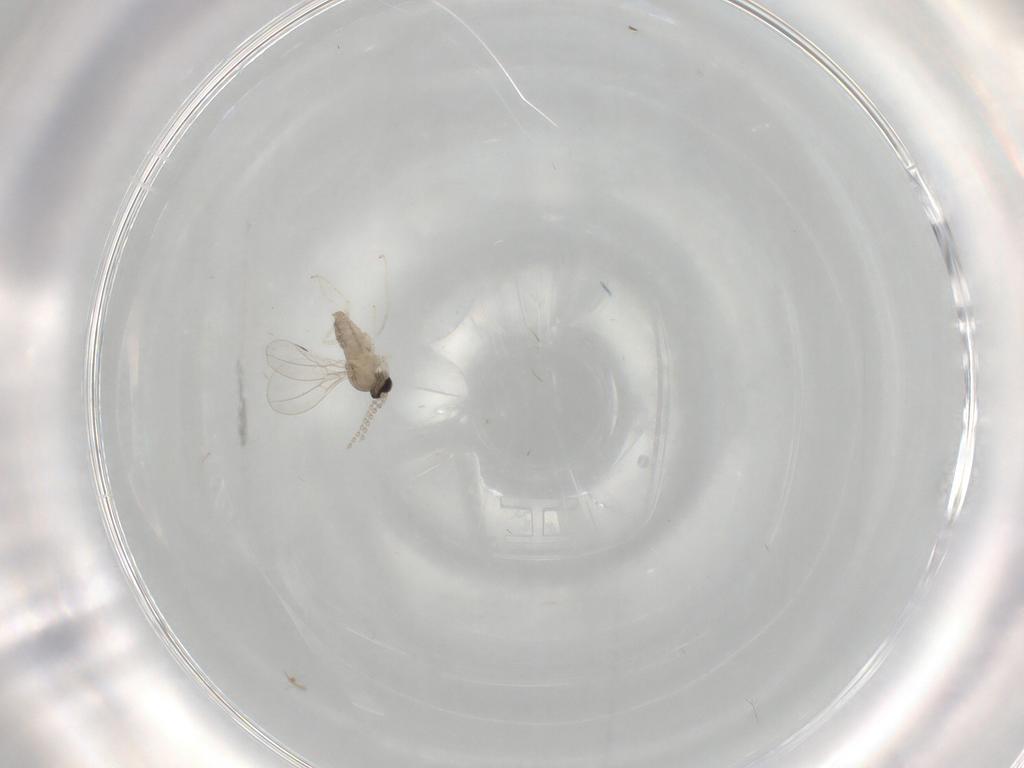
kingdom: Animalia
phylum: Arthropoda
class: Insecta
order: Diptera
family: Cecidomyiidae
